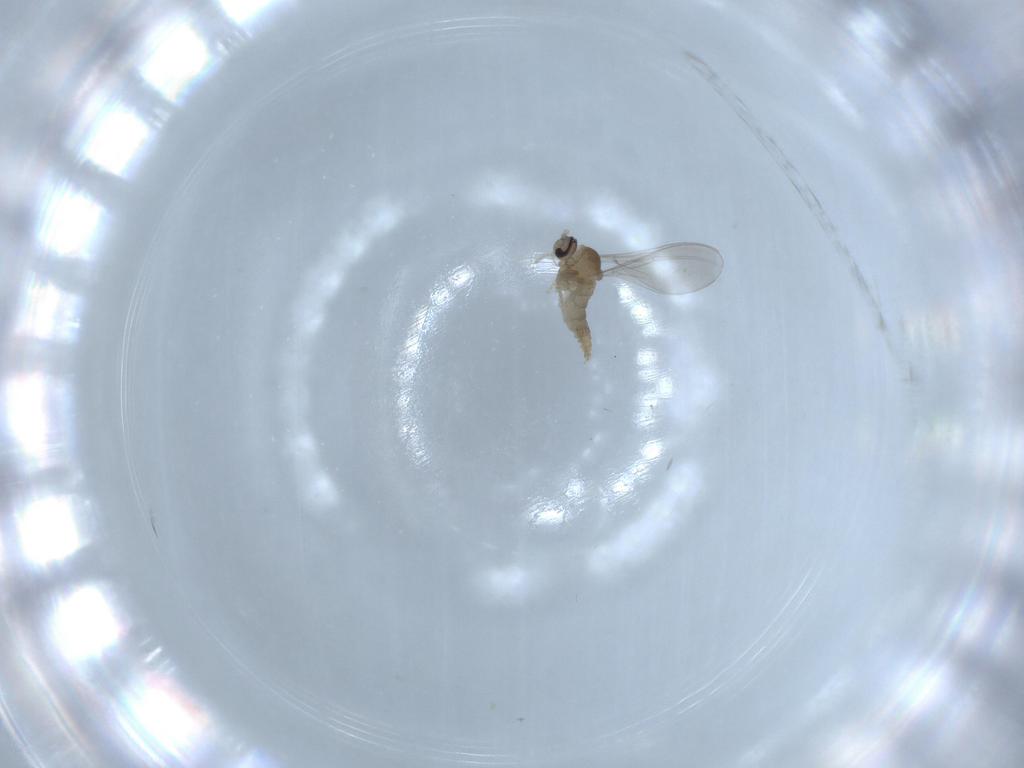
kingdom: Animalia
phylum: Arthropoda
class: Insecta
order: Diptera
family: Cecidomyiidae
